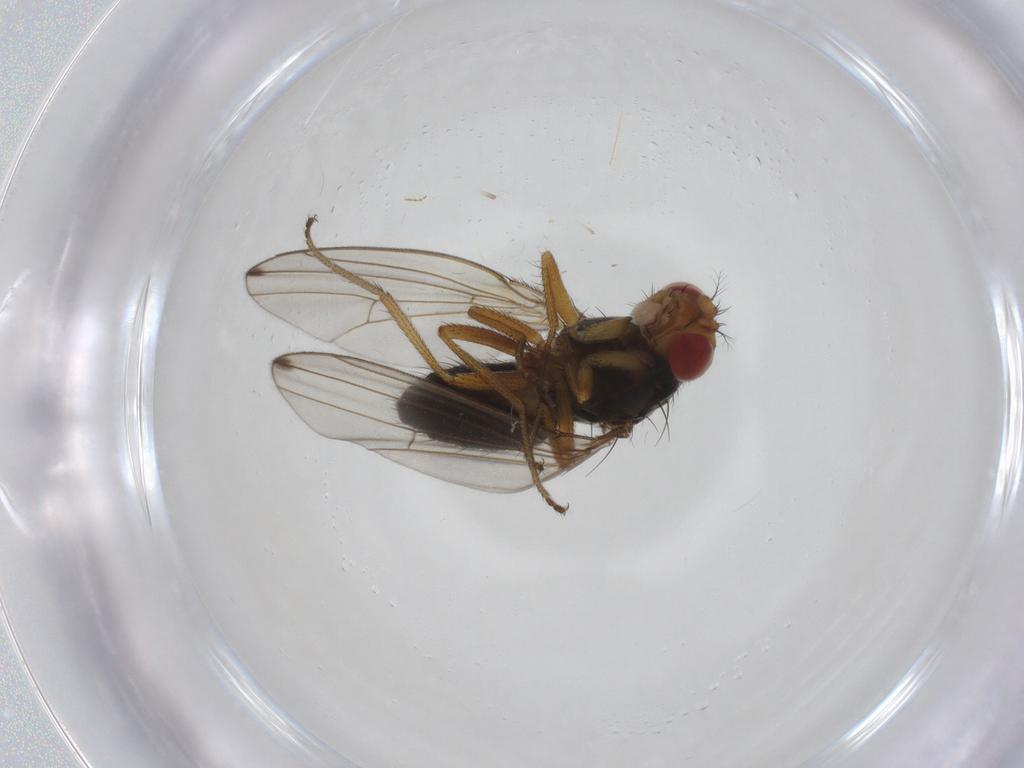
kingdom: Animalia
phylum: Arthropoda
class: Insecta
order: Diptera
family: Drosophilidae
